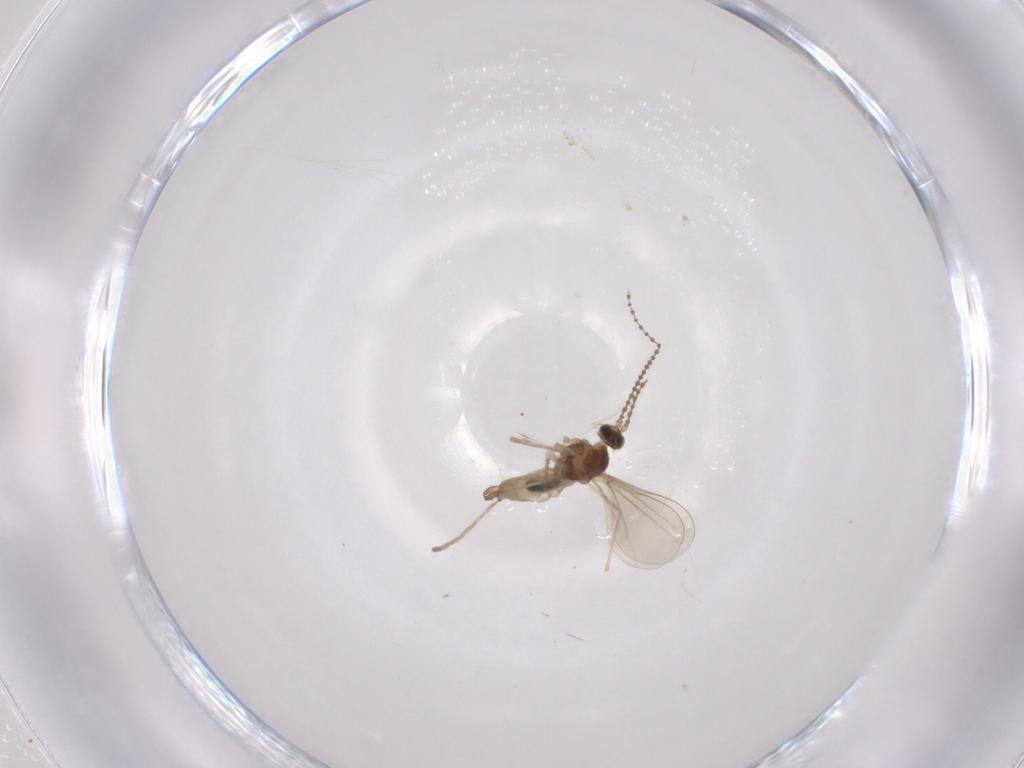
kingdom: Animalia
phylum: Arthropoda
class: Insecta
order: Diptera
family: Cecidomyiidae
